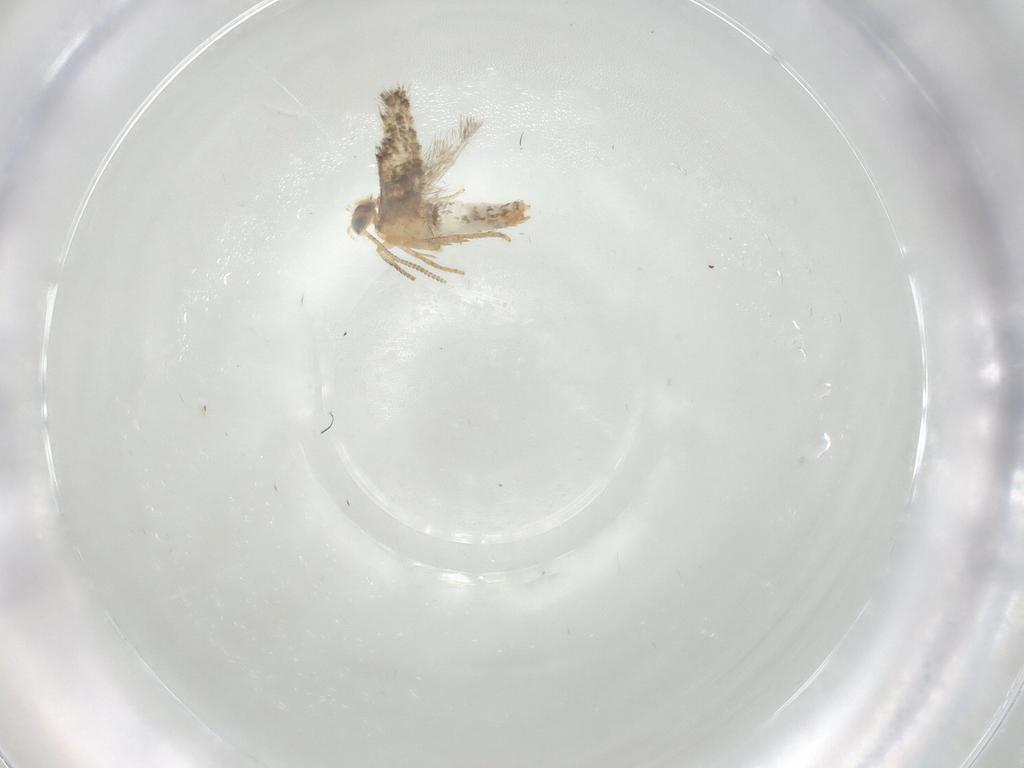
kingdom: Animalia
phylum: Arthropoda
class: Insecta
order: Lepidoptera
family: Nepticulidae
